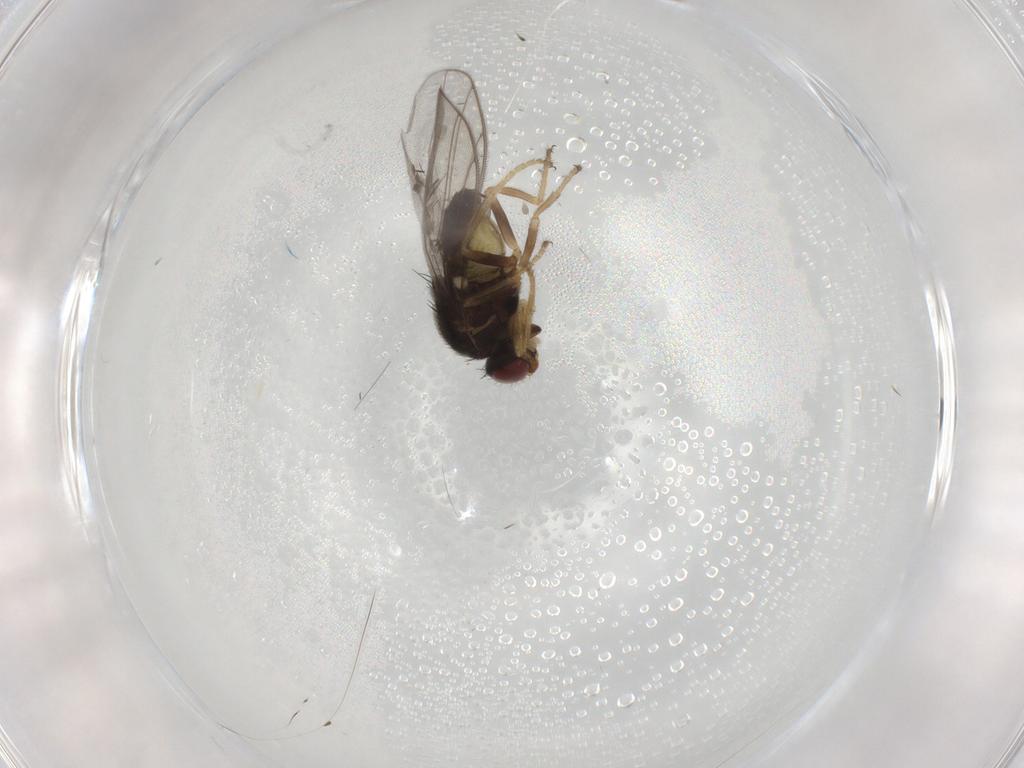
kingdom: Animalia
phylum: Arthropoda
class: Insecta
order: Diptera
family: Chloropidae
